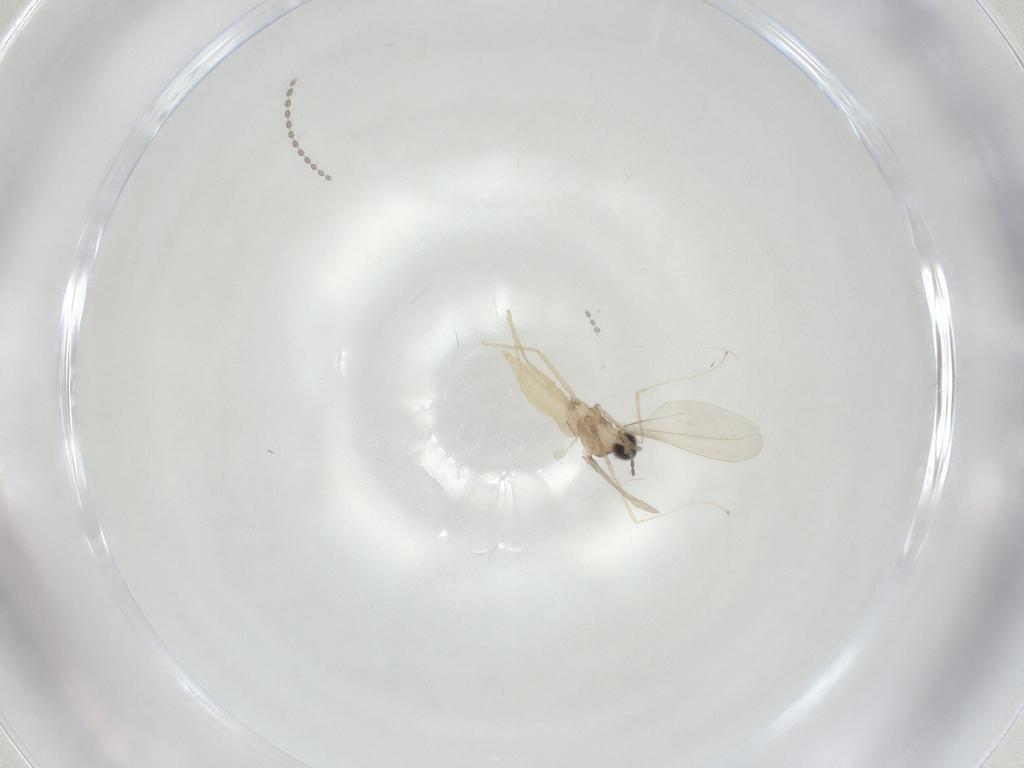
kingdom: Animalia
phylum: Arthropoda
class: Insecta
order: Diptera
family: Cecidomyiidae
